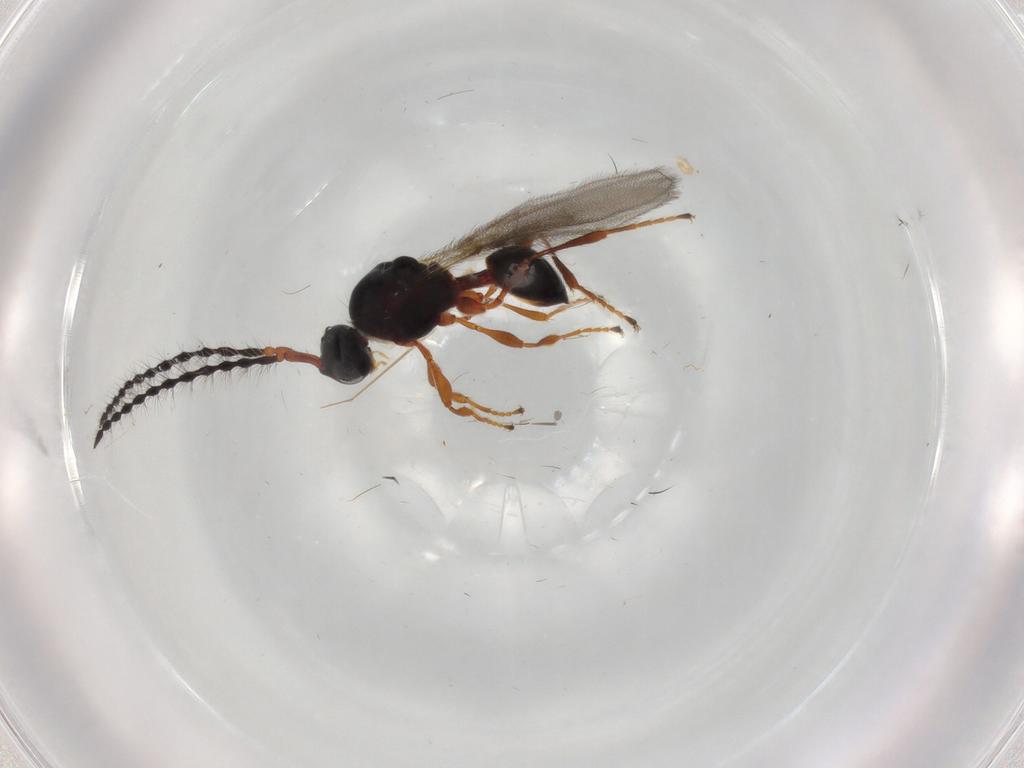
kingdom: Animalia
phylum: Arthropoda
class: Insecta
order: Hymenoptera
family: Diapriidae
